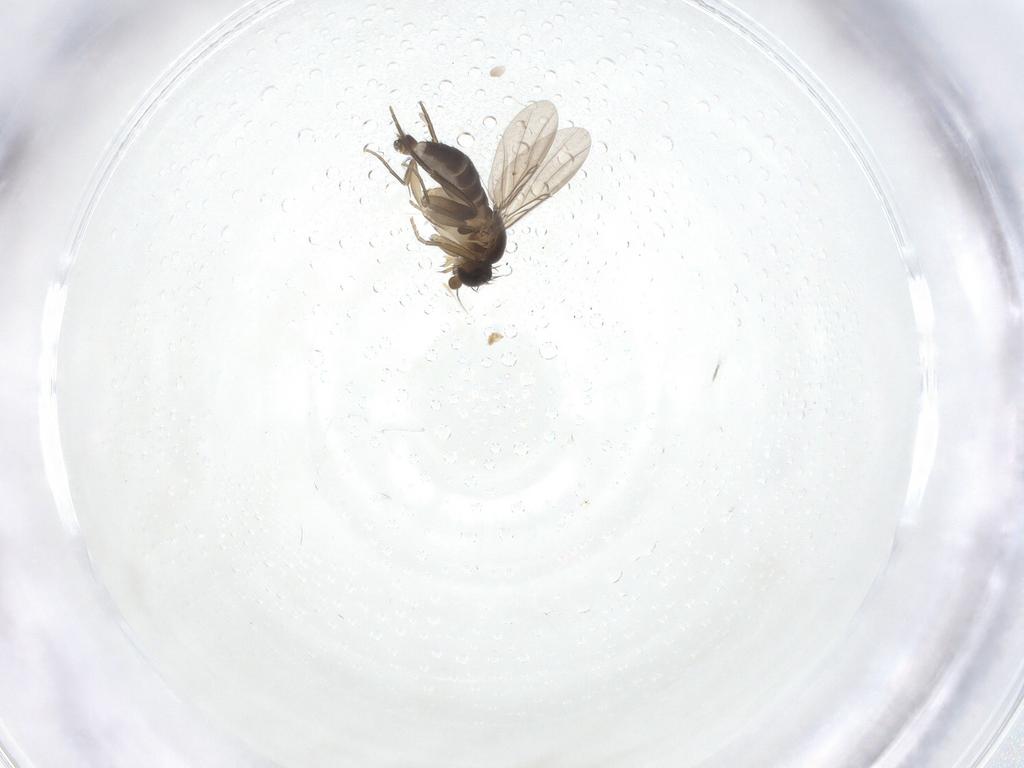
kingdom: Animalia
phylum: Arthropoda
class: Insecta
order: Diptera
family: Phoridae
